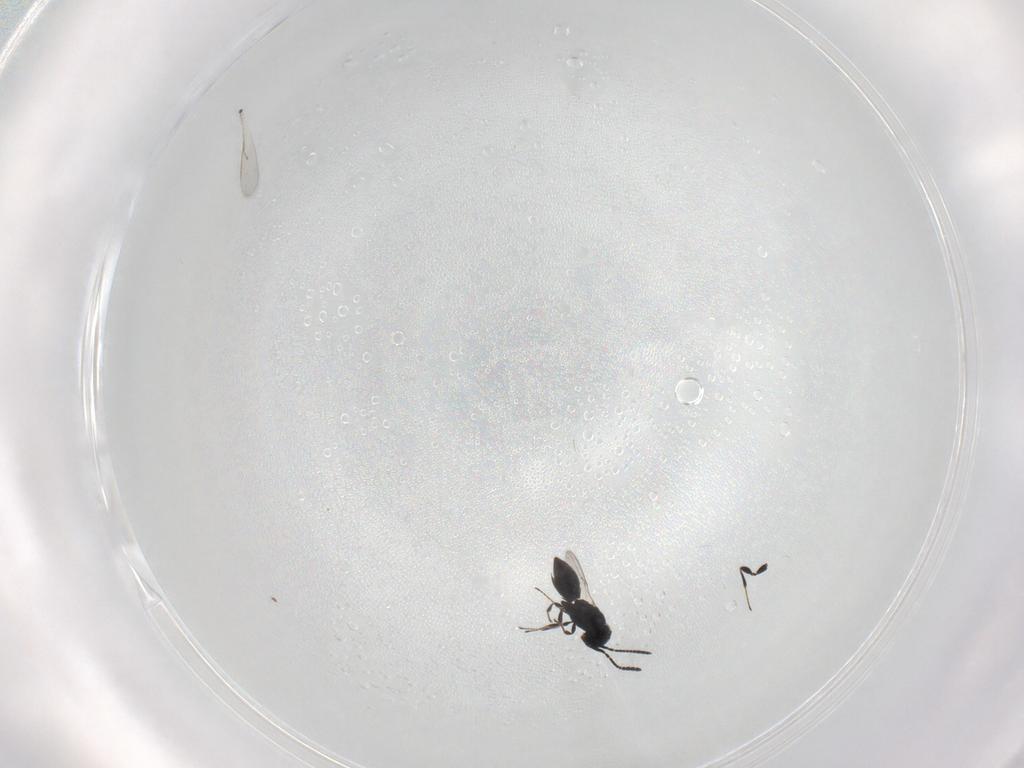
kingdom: Animalia
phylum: Arthropoda
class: Insecta
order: Hymenoptera
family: Scelionidae
